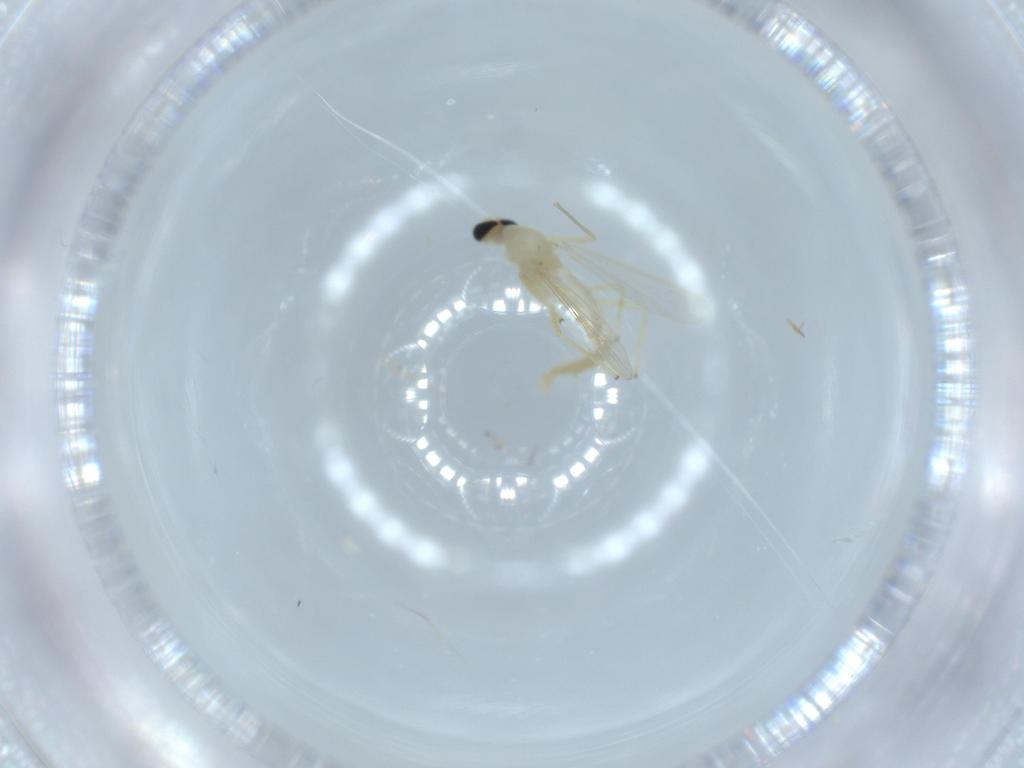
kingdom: Animalia
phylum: Arthropoda
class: Insecta
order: Diptera
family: Chironomidae
